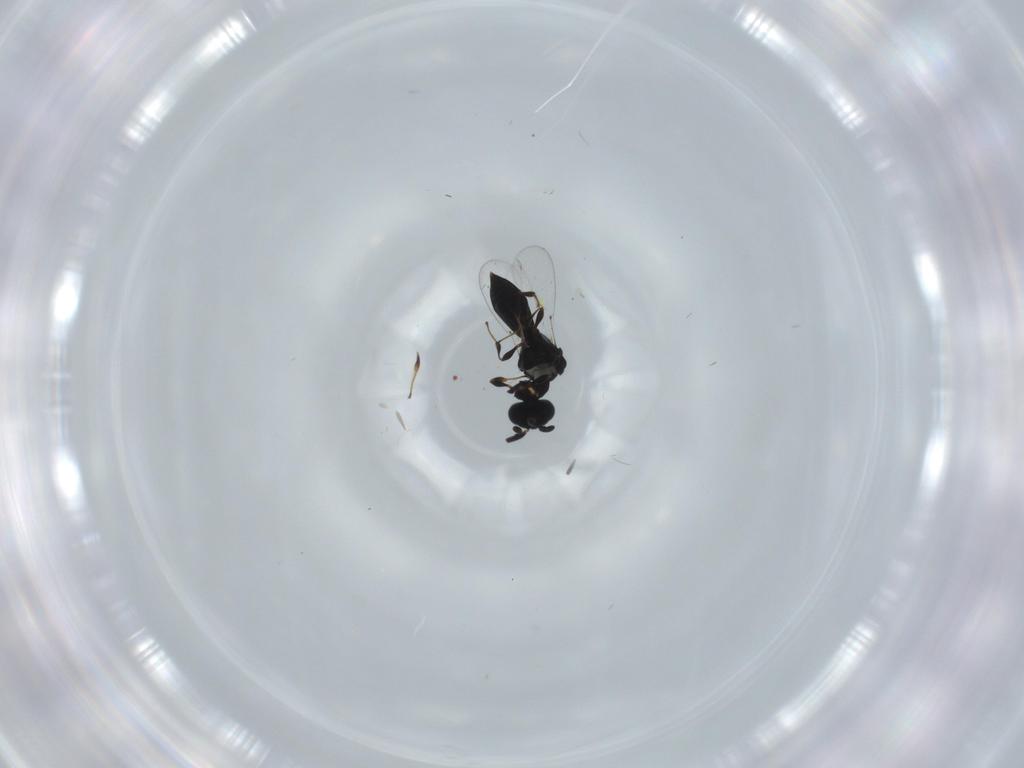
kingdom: Animalia
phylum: Arthropoda
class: Insecta
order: Hymenoptera
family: Platygastridae
